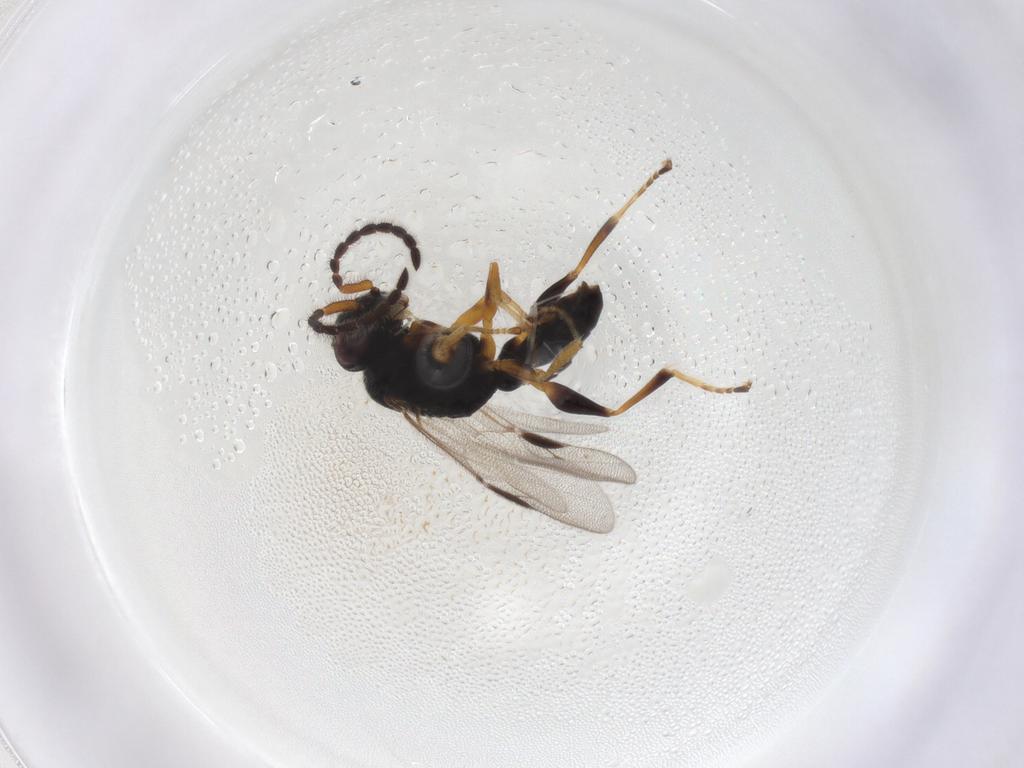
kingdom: Animalia
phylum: Arthropoda
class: Insecta
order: Hymenoptera
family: Dryinidae
